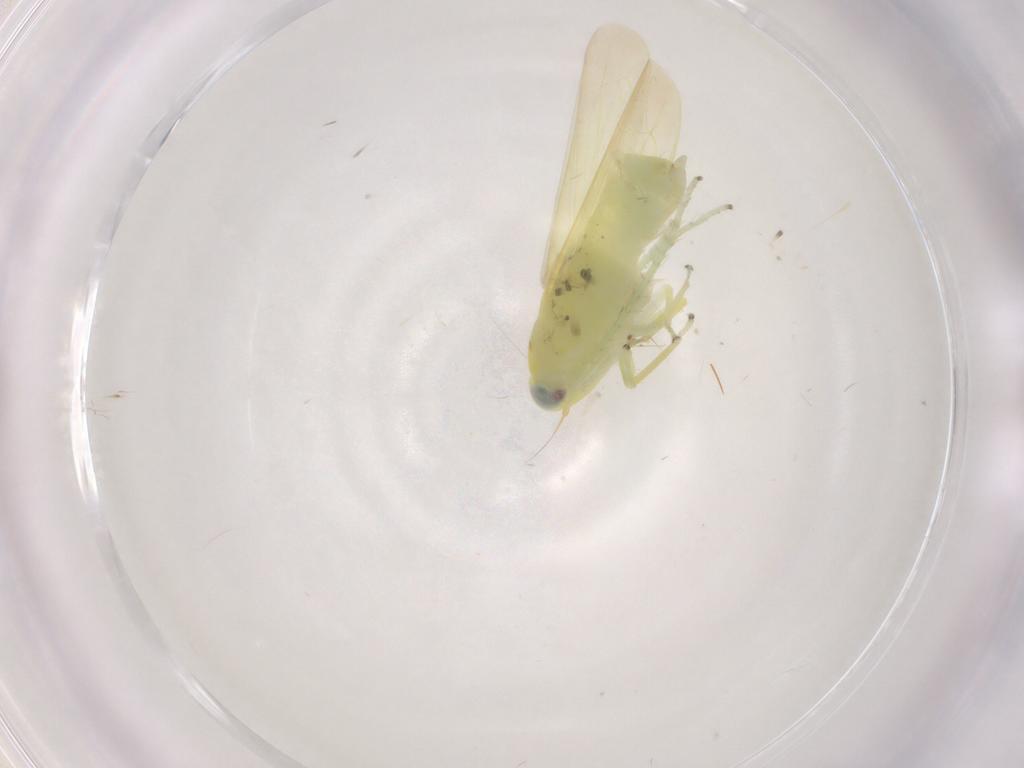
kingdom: Animalia
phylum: Arthropoda
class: Insecta
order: Hemiptera
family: Cicadellidae
